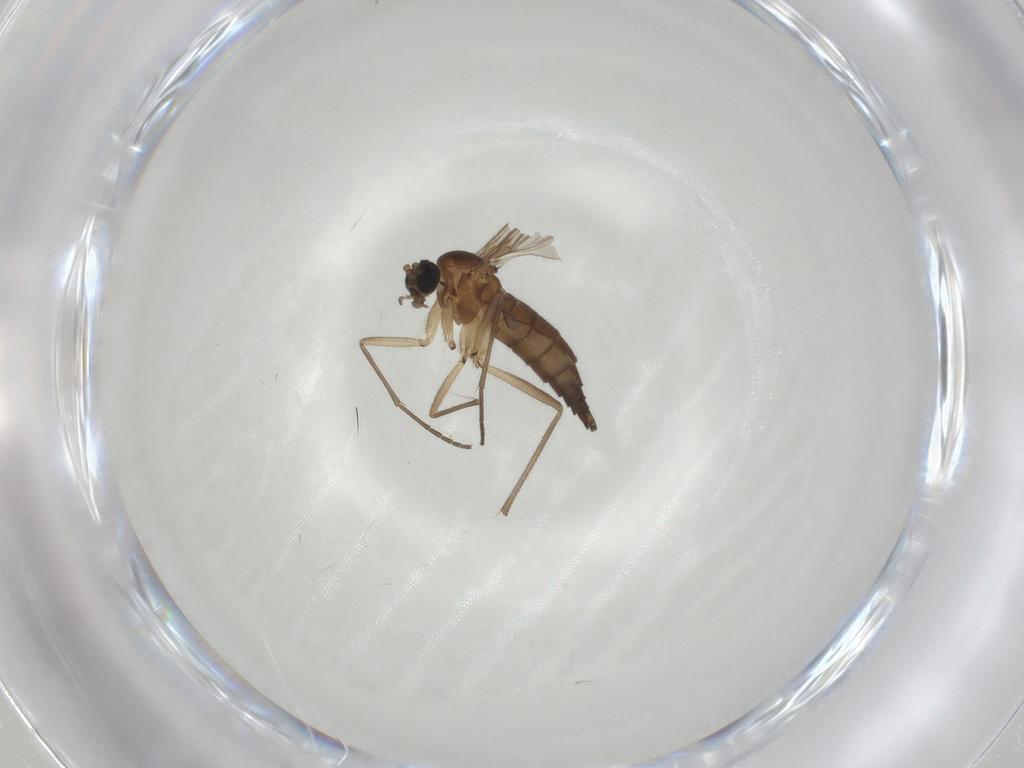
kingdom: Animalia
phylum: Arthropoda
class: Insecta
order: Diptera
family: Sciaridae
